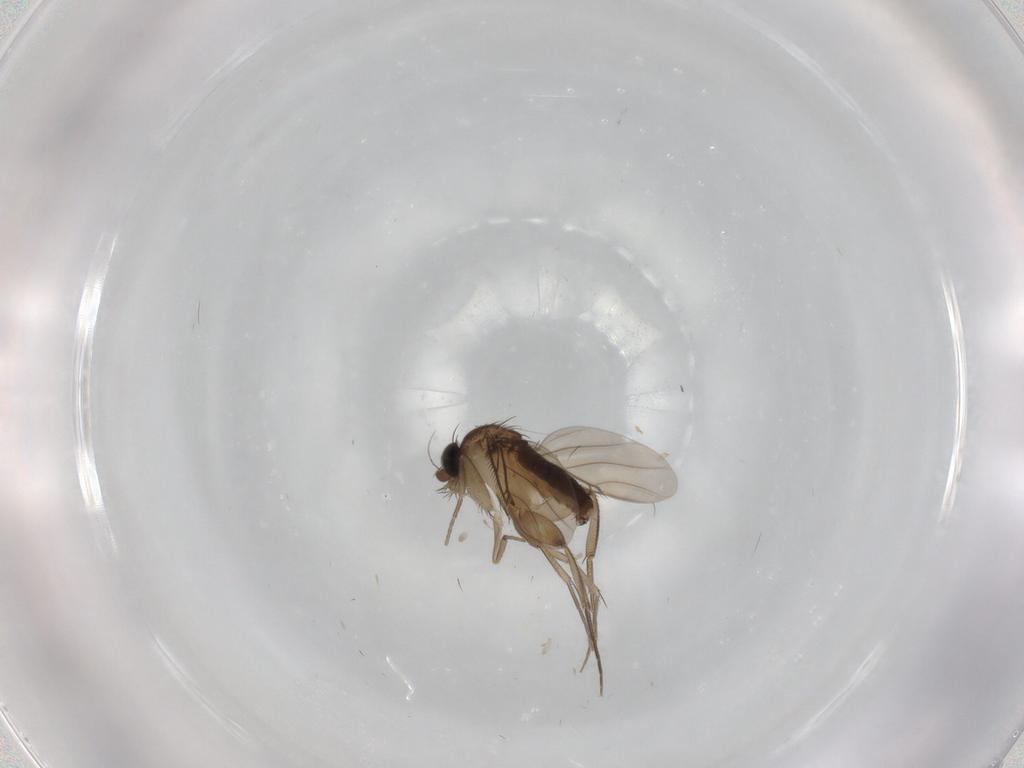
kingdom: Animalia
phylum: Arthropoda
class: Insecta
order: Diptera
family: Phoridae
